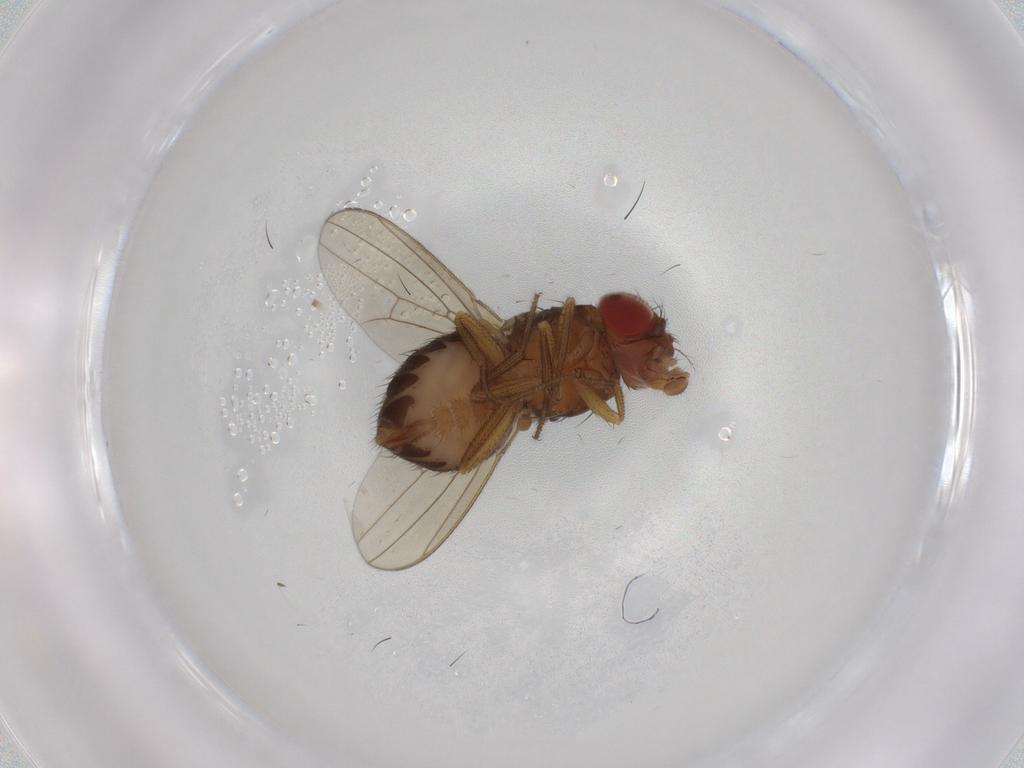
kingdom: Animalia
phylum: Arthropoda
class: Insecta
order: Diptera
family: Drosophilidae
